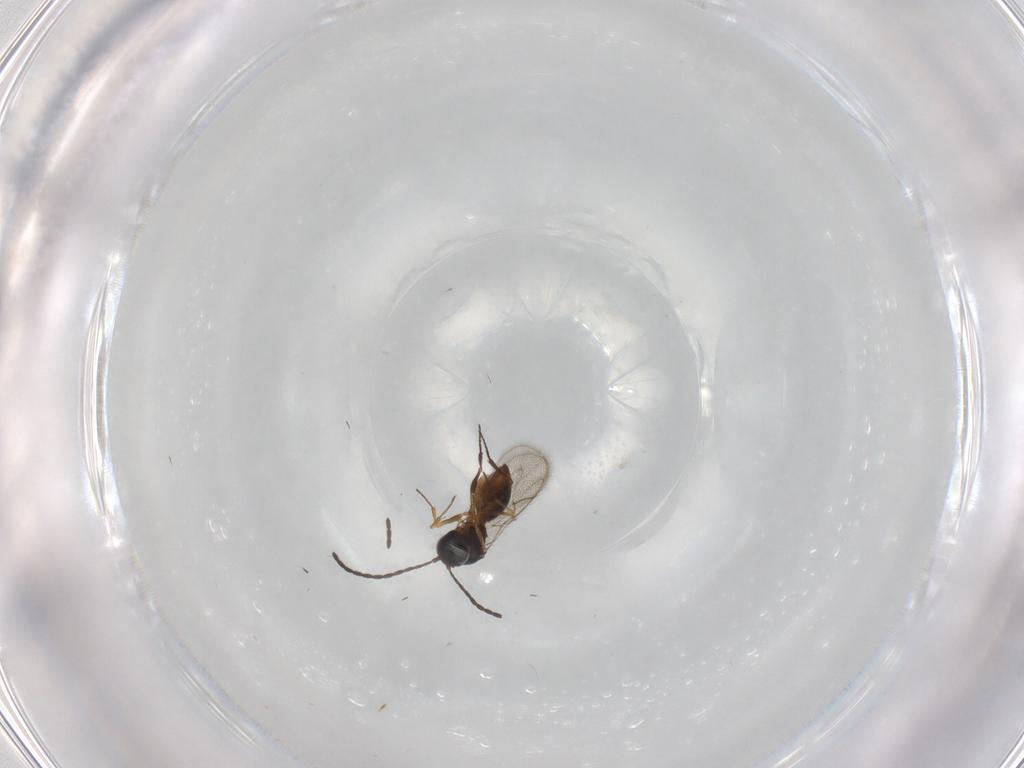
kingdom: Animalia
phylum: Arthropoda
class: Insecta
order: Hymenoptera
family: Figitidae
